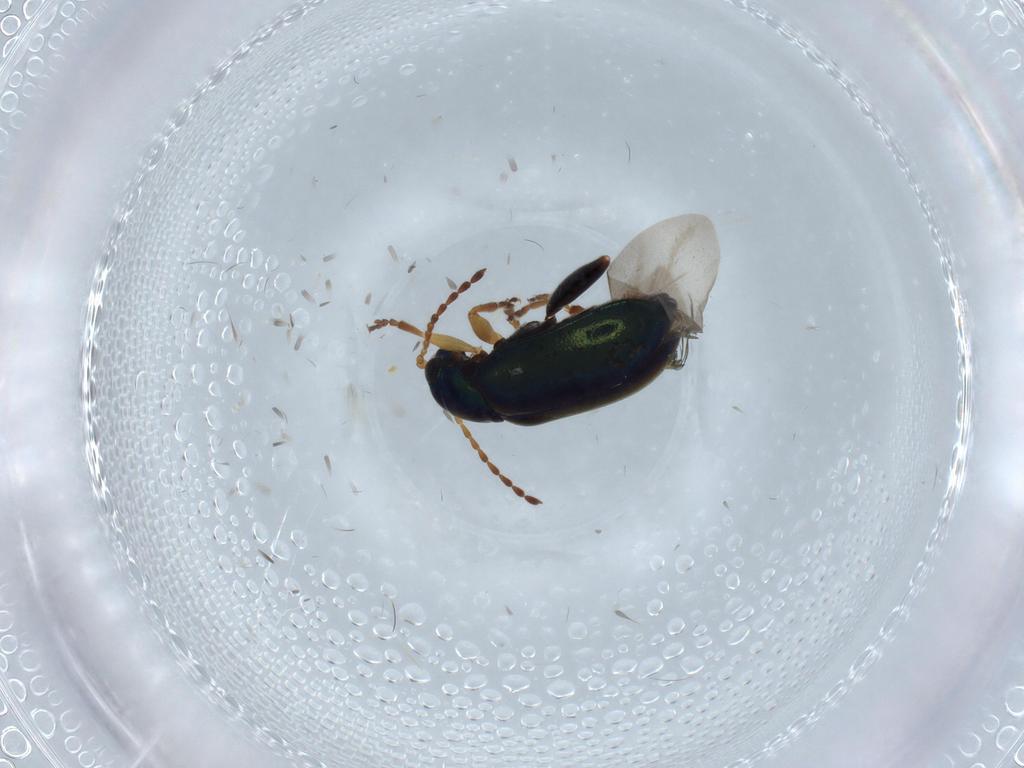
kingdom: Animalia
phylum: Arthropoda
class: Insecta
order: Coleoptera
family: Chrysomelidae
